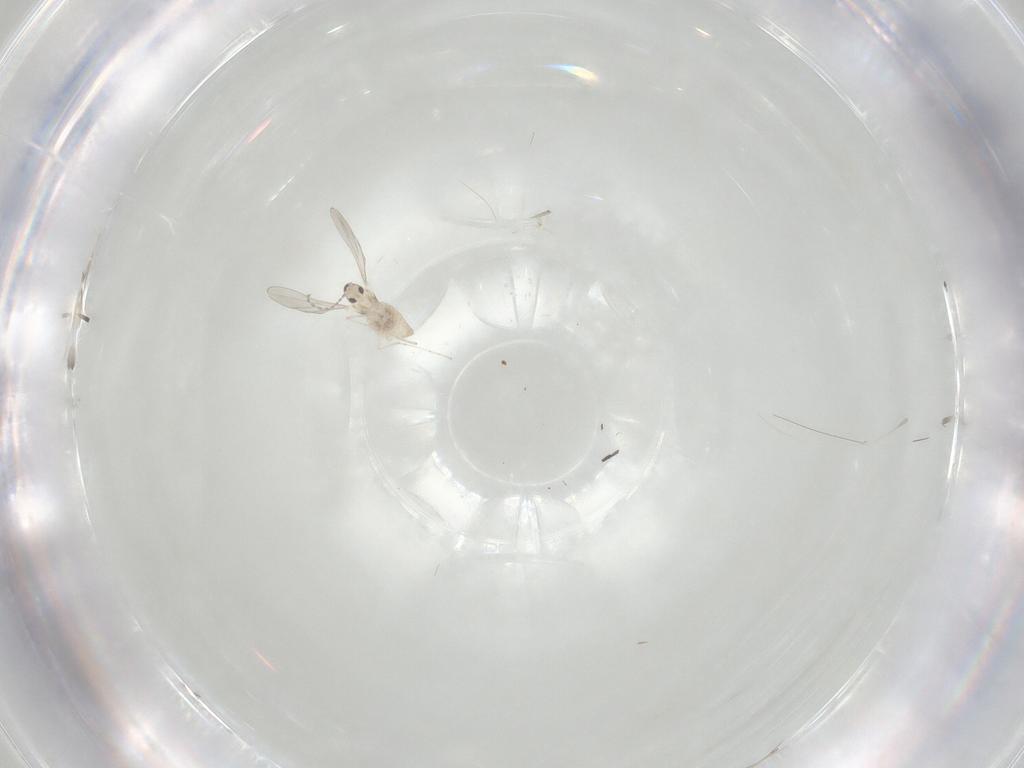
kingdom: Animalia
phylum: Arthropoda
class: Insecta
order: Diptera
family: Cecidomyiidae
